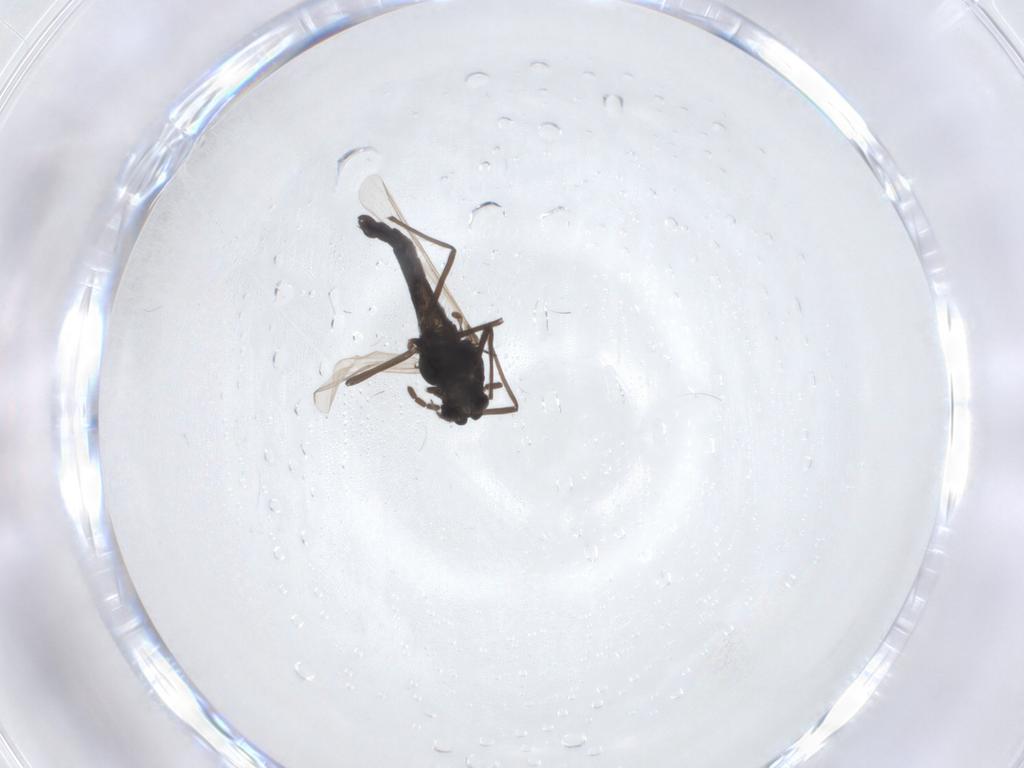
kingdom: Animalia
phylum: Arthropoda
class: Insecta
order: Diptera
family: Mycetophilidae
